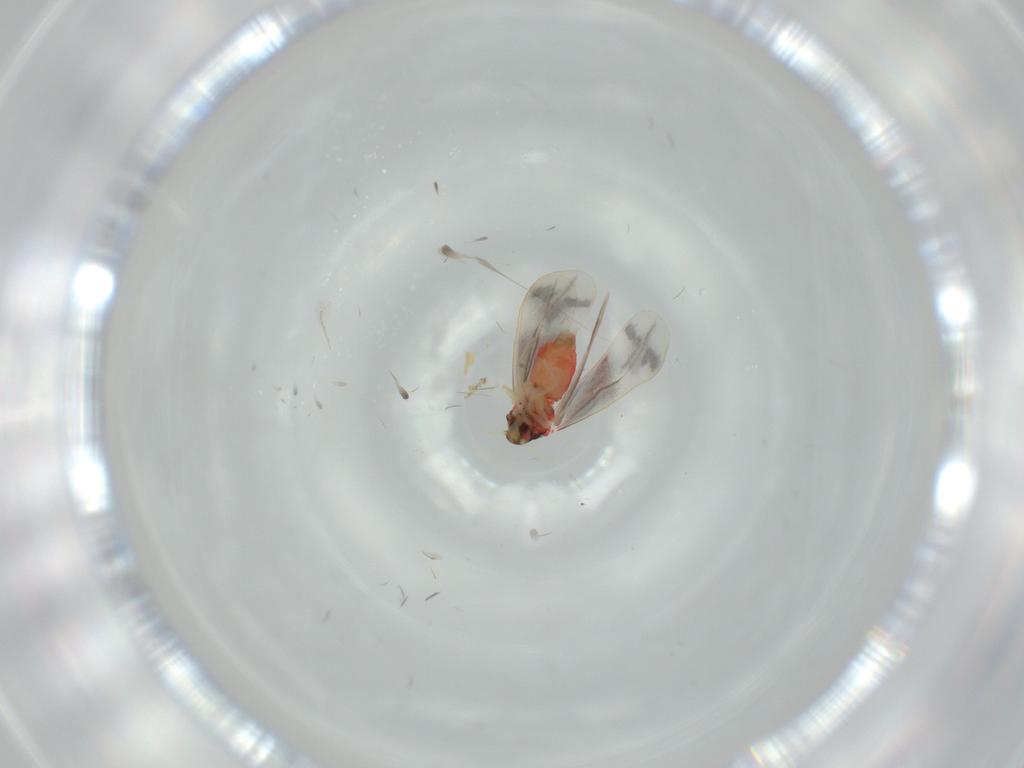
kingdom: Animalia
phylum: Arthropoda
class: Insecta
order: Hemiptera
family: Aleyrodidae
